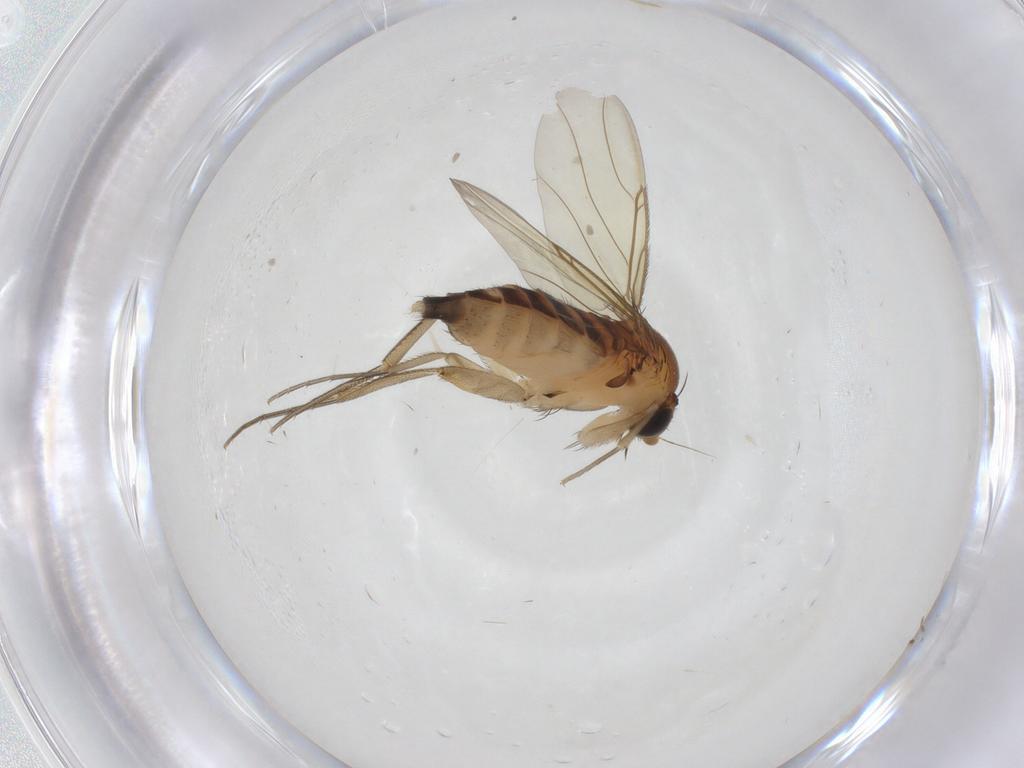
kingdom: Animalia
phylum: Arthropoda
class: Insecta
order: Diptera
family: Phoridae
